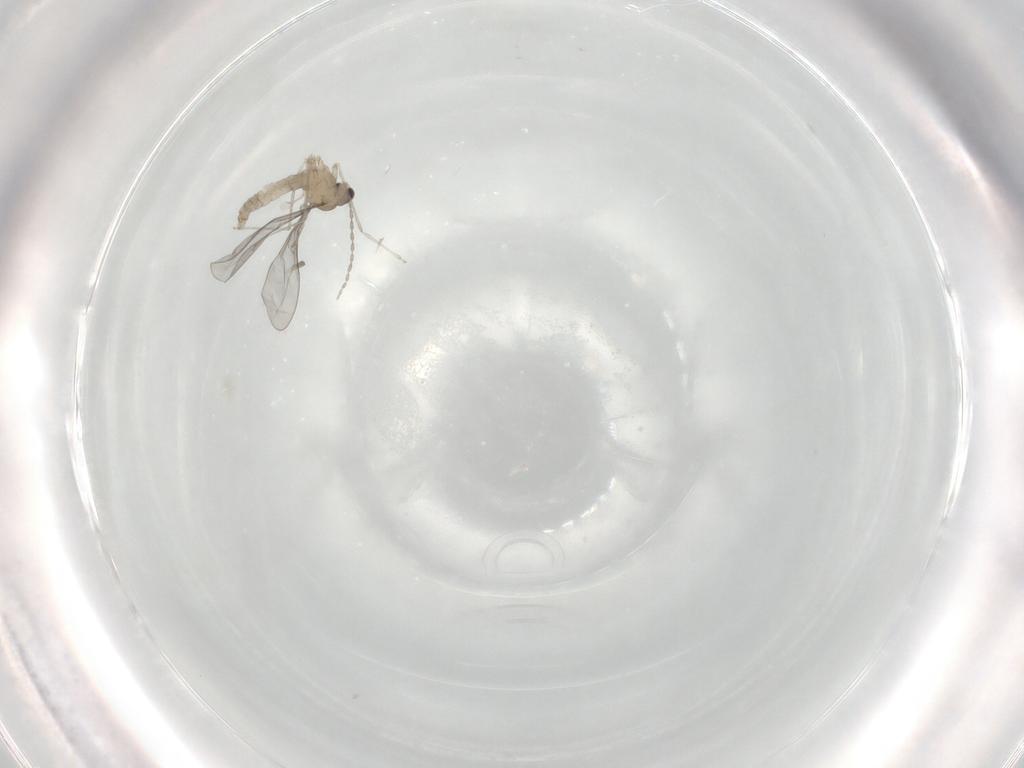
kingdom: Animalia
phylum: Arthropoda
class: Insecta
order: Diptera
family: Cecidomyiidae
